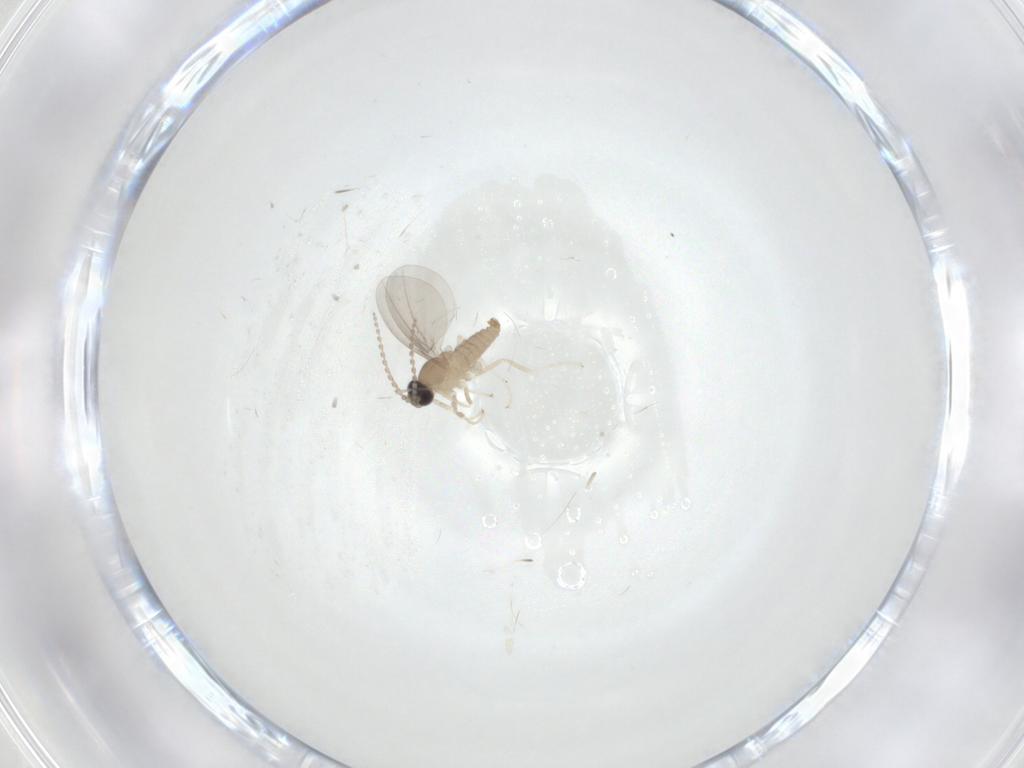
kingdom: Animalia
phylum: Arthropoda
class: Insecta
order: Diptera
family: Cecidomyiidae
